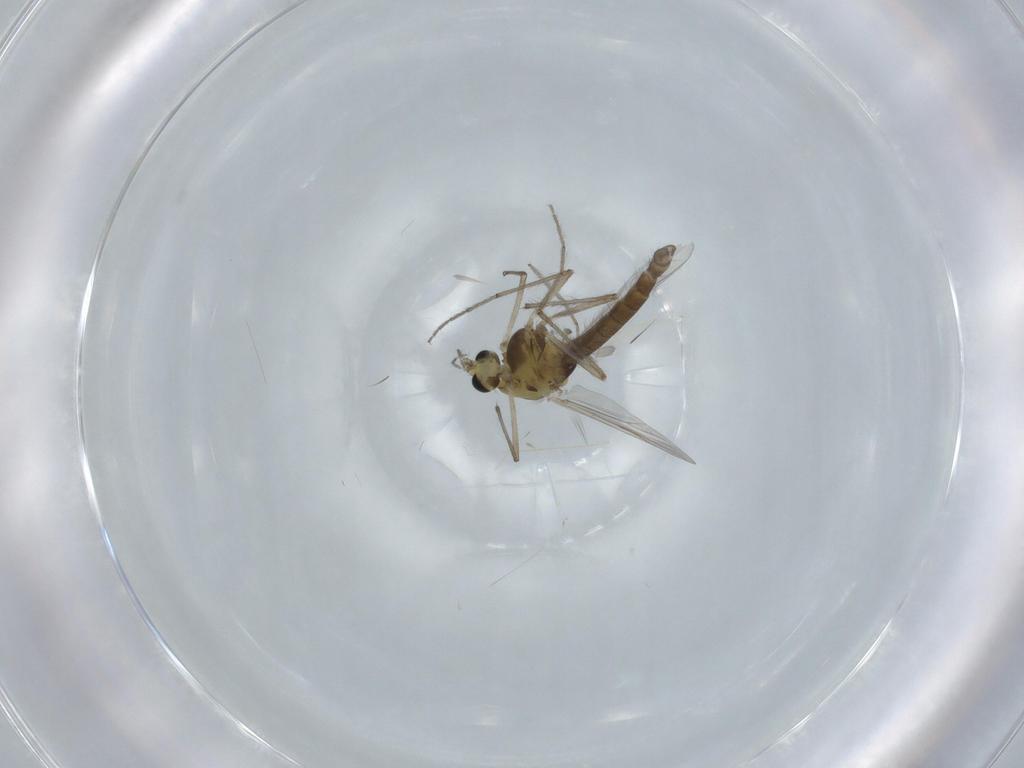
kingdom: Animalia
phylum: Arthropoda
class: Insecta
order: Diptera
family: Chironomidae
